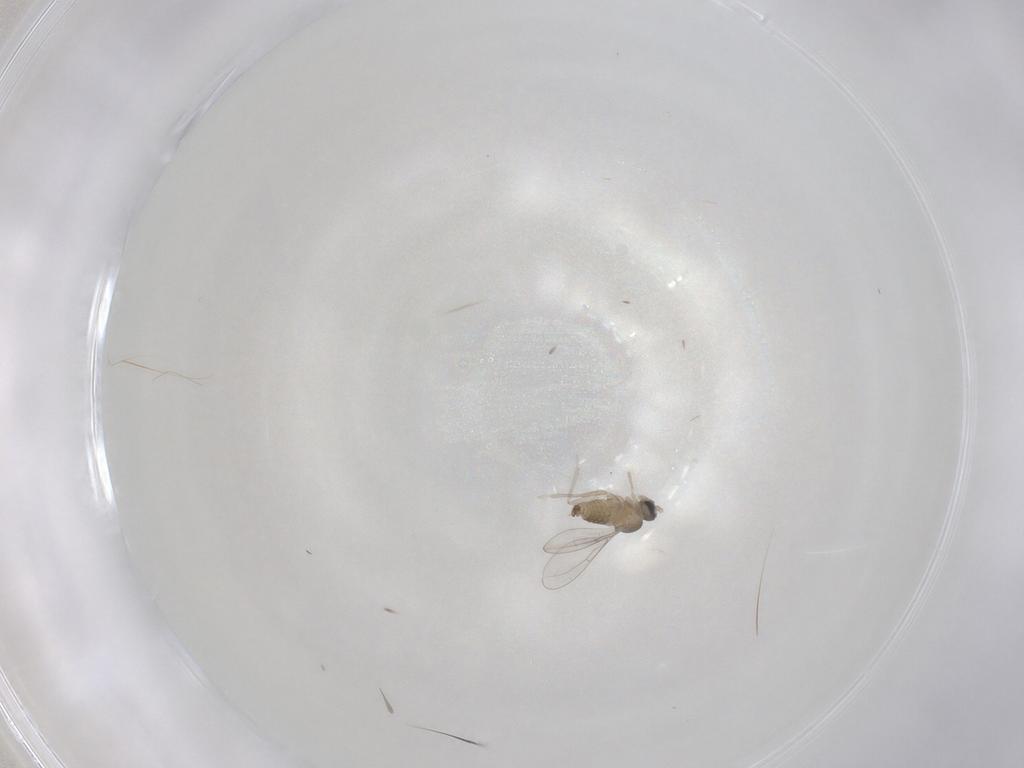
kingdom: Animalia
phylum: Arthropoda
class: Insecta
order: Diptera
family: Cecidomyiidae
